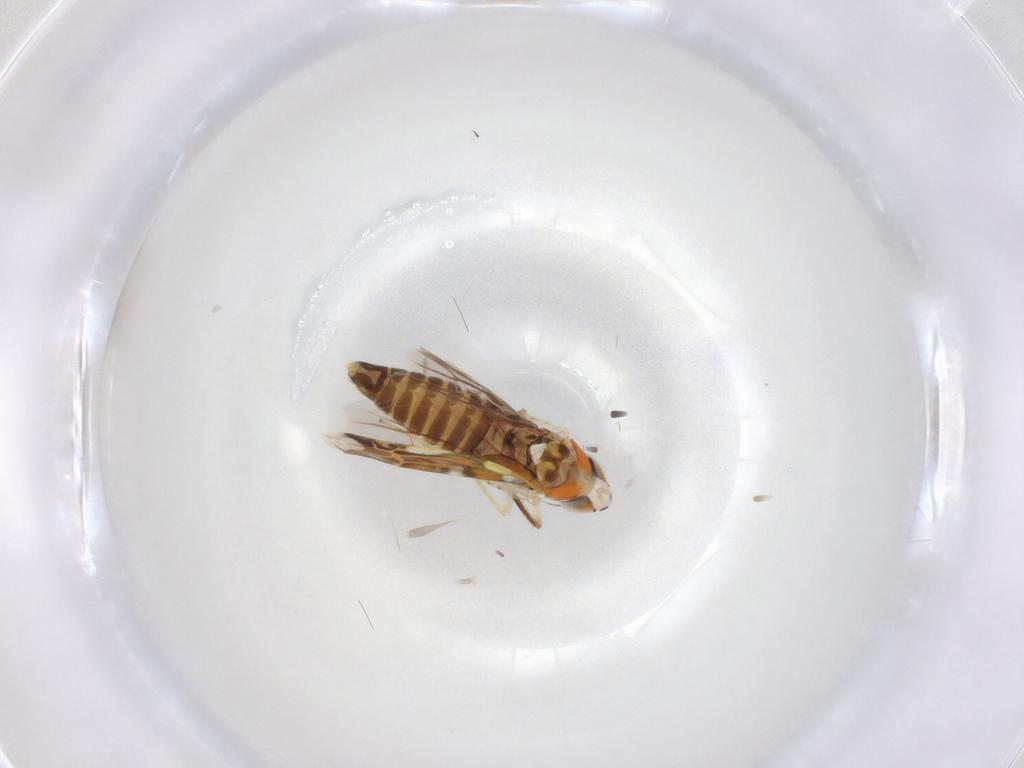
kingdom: Animalia
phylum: Arthropoda
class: Insecta
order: Hemiptera
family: Cicadellidae
